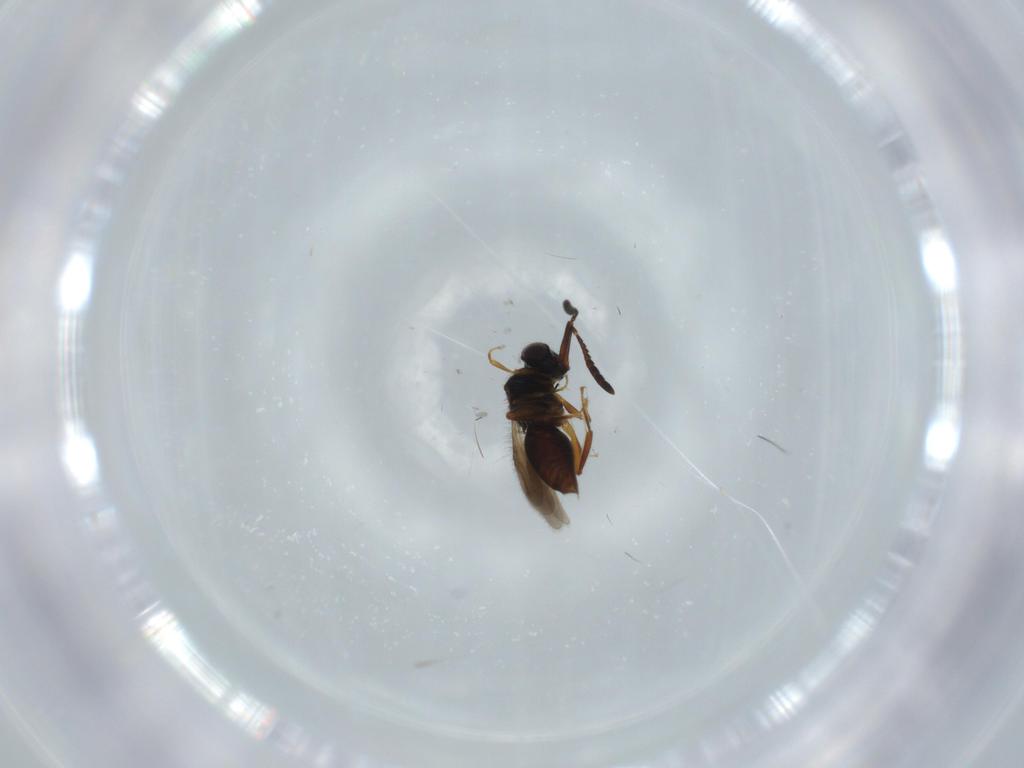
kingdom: Animalia
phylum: Arthropoda
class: Insecta
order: Hymenoptera
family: Ceraphronidae
